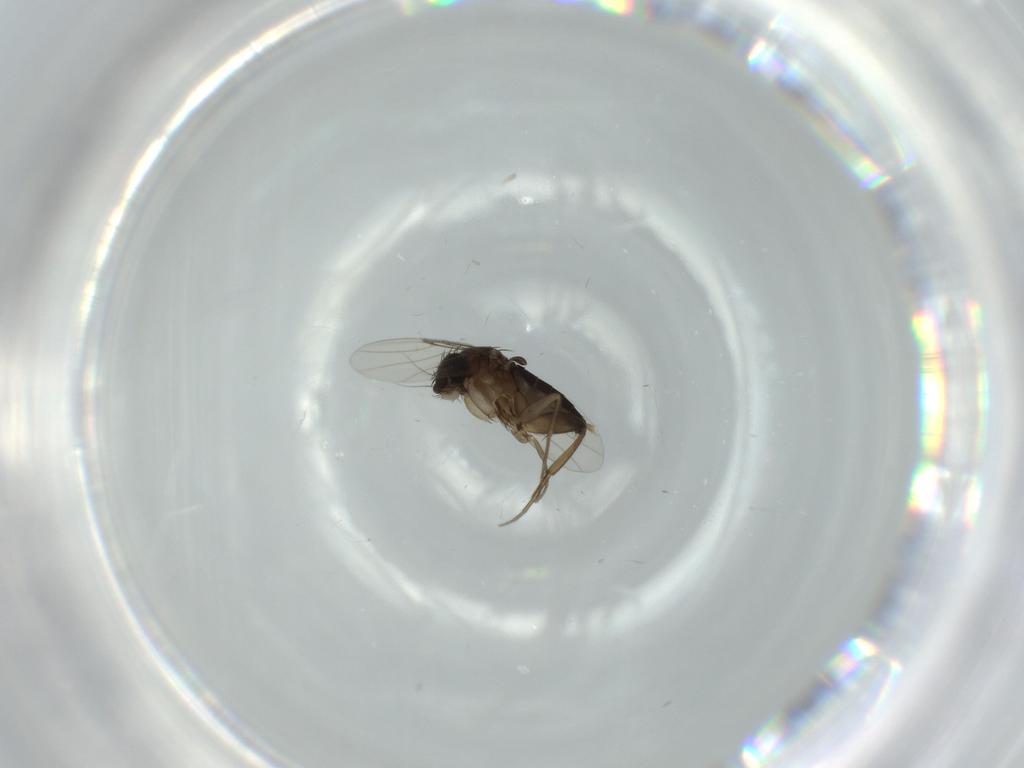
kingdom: Animalia
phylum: Arthropoda
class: Insecta
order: Diptera
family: Phoridae
